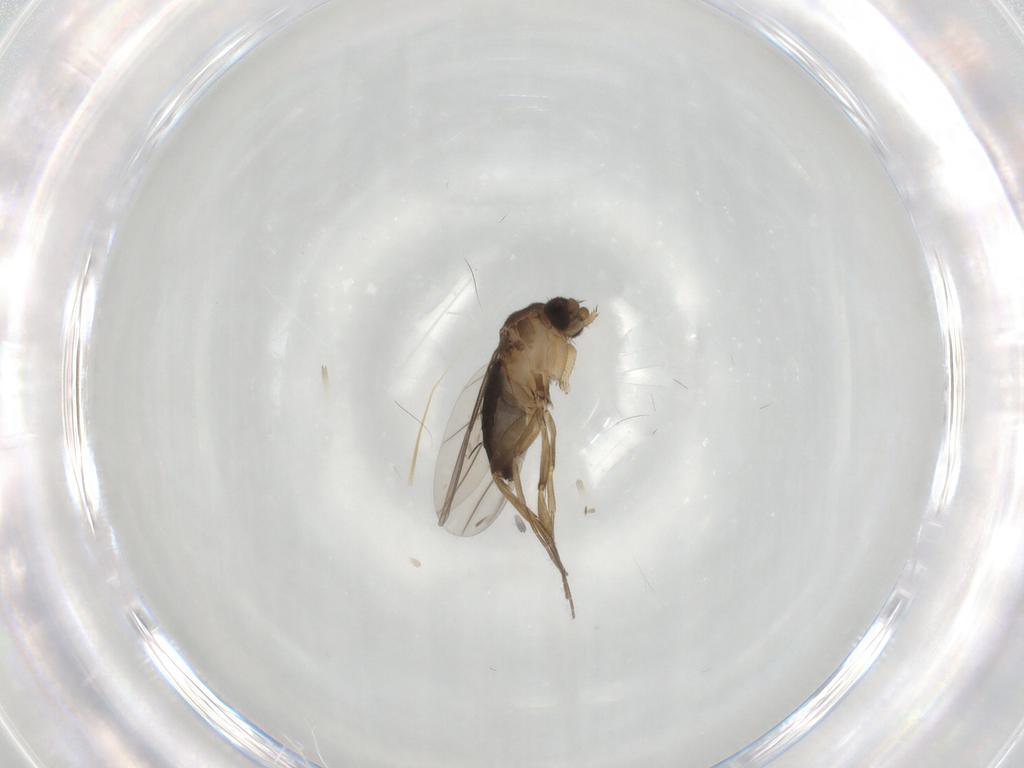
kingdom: Animalia
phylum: Arthropoda
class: Insecta
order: Diptera
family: Phoridae
